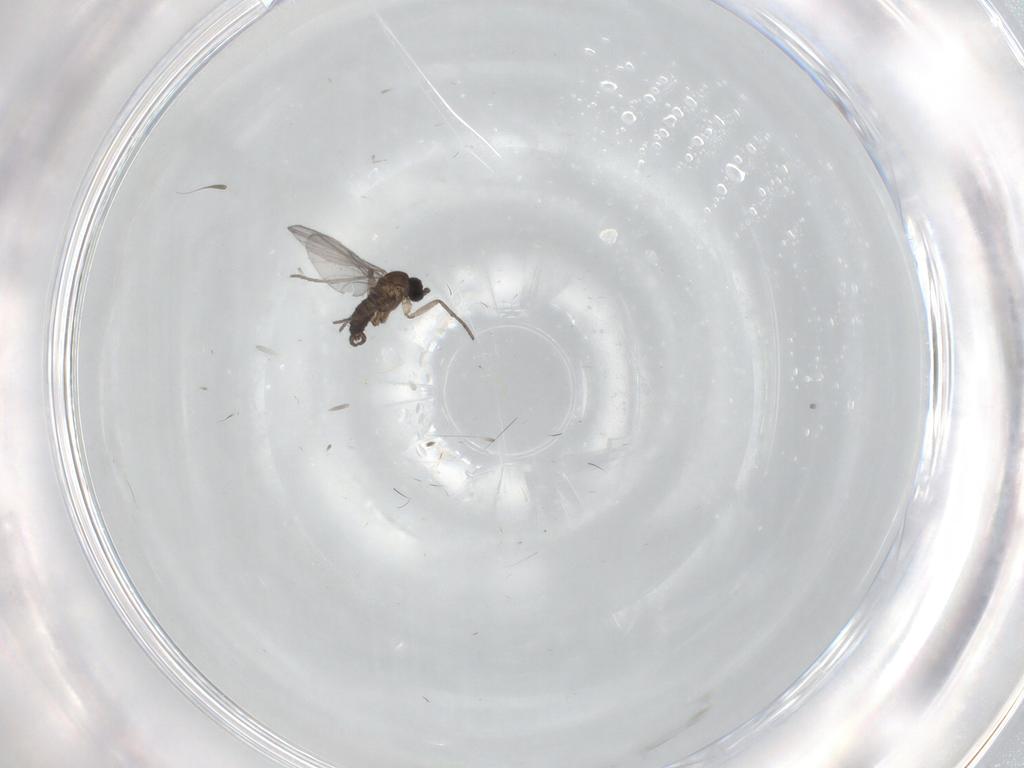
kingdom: Animalia
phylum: Arthropoda
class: Insecta
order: Diptera
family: Sciaridae
